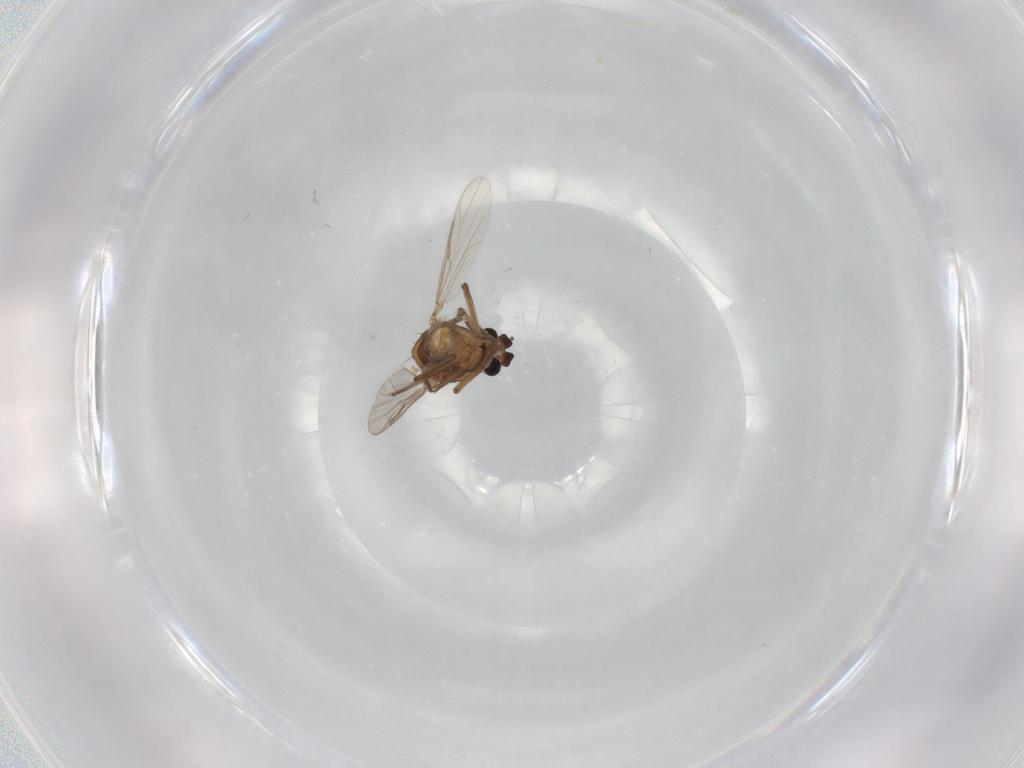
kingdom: Animalia
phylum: Arthropoda
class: Insecta
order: Diptera
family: Ceratopogonidae
